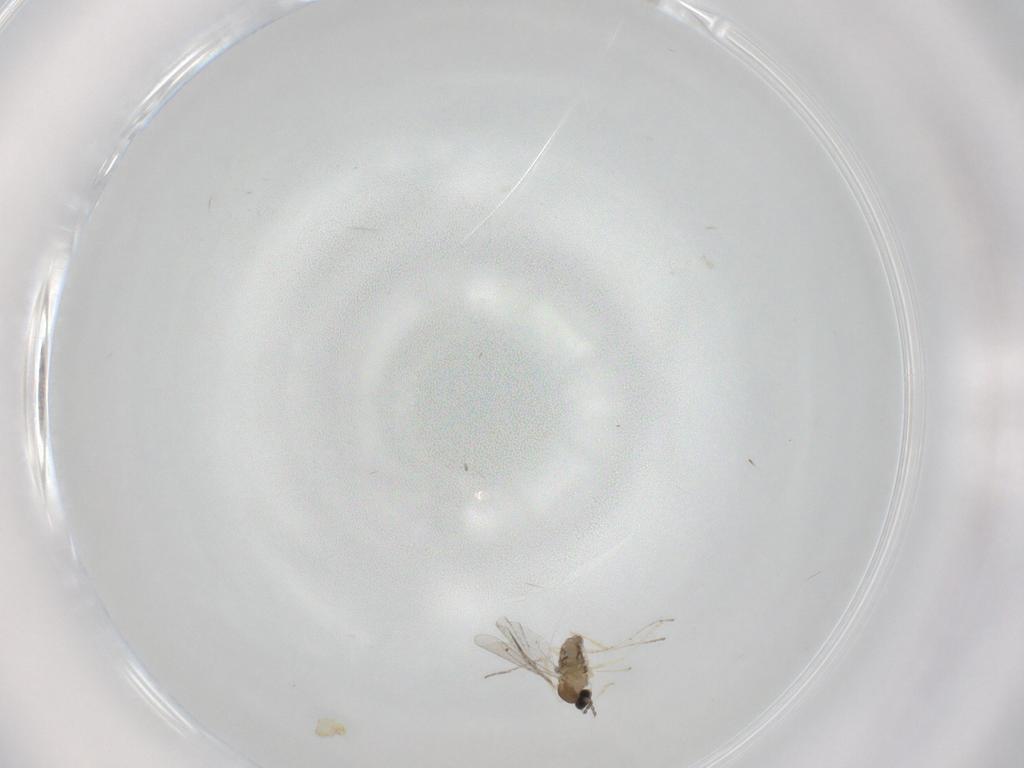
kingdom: Animalia
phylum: Arthropoda
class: Insecta
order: Diptera
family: Cecidomyiidae
